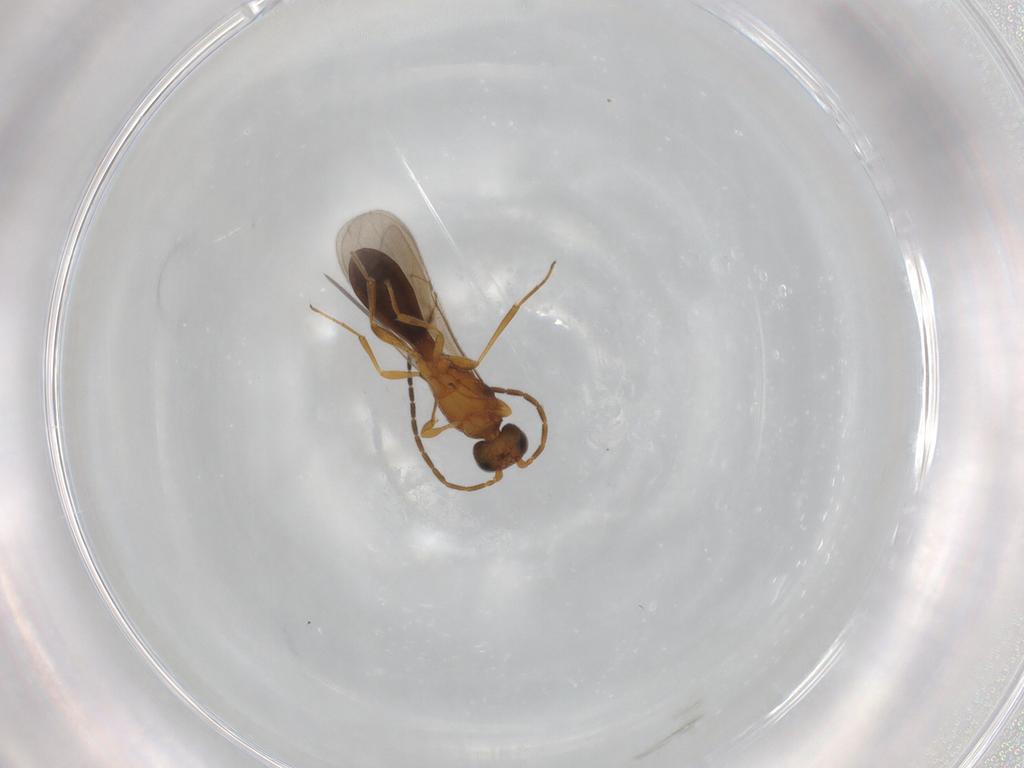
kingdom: Animalia
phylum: Arthropoda
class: Insecta
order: Hymenoptera
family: Scelionidae
